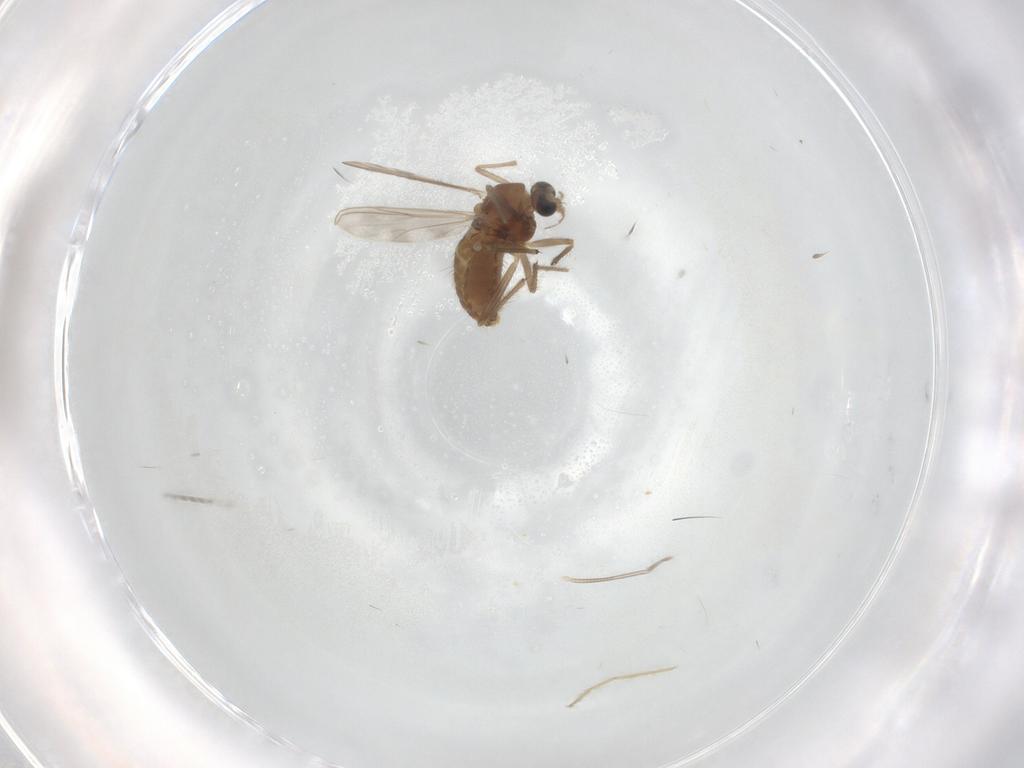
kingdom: Animalia
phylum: Arthropoda
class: Insecta
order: Diptera
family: Chironomidae
